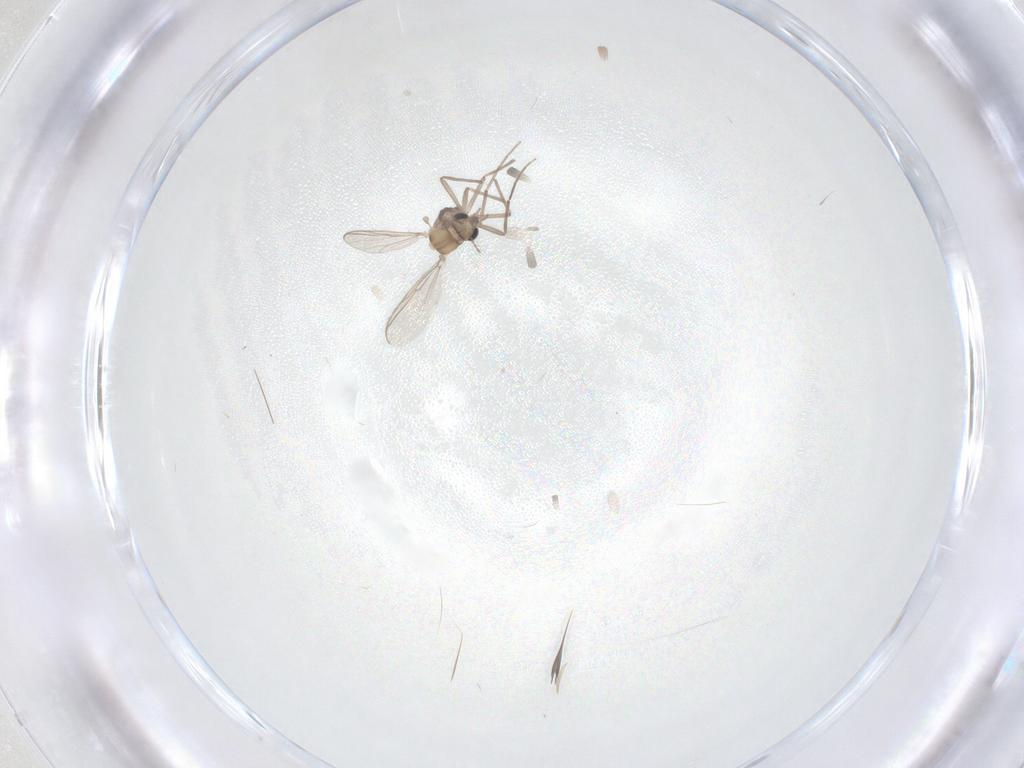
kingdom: Animalia
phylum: Arthropoda
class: Insecta
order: Diptera
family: Chironomidae
